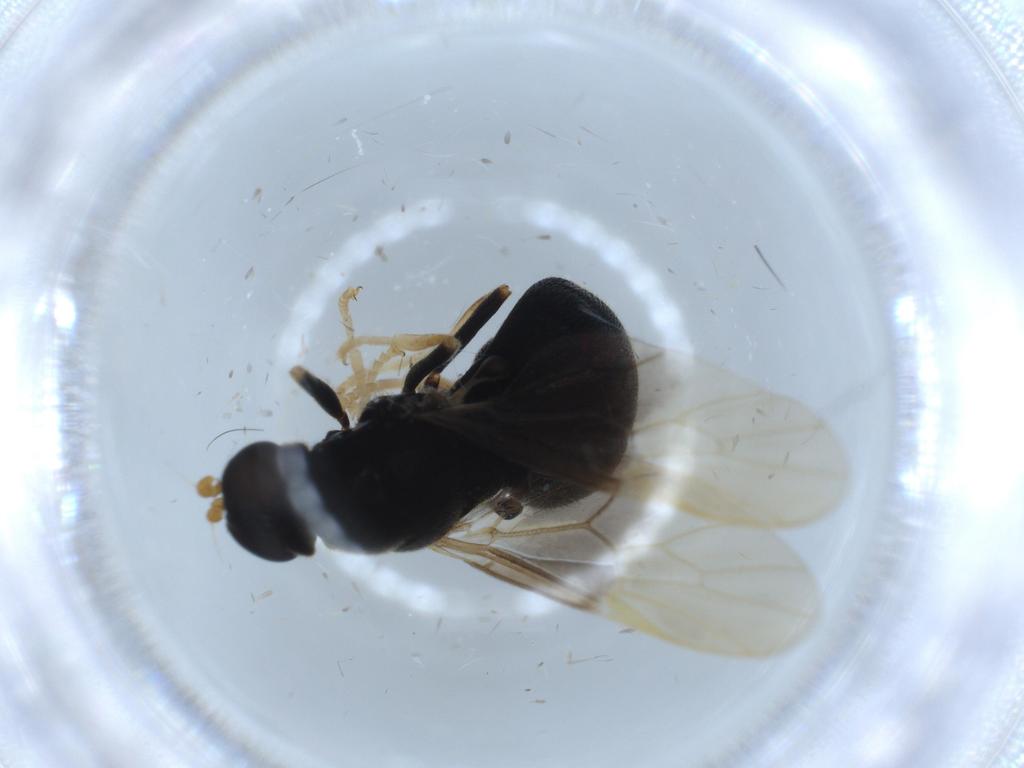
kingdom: Animalia
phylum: Arthropoda
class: Insecta
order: Diptera
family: Stratiomyidae
